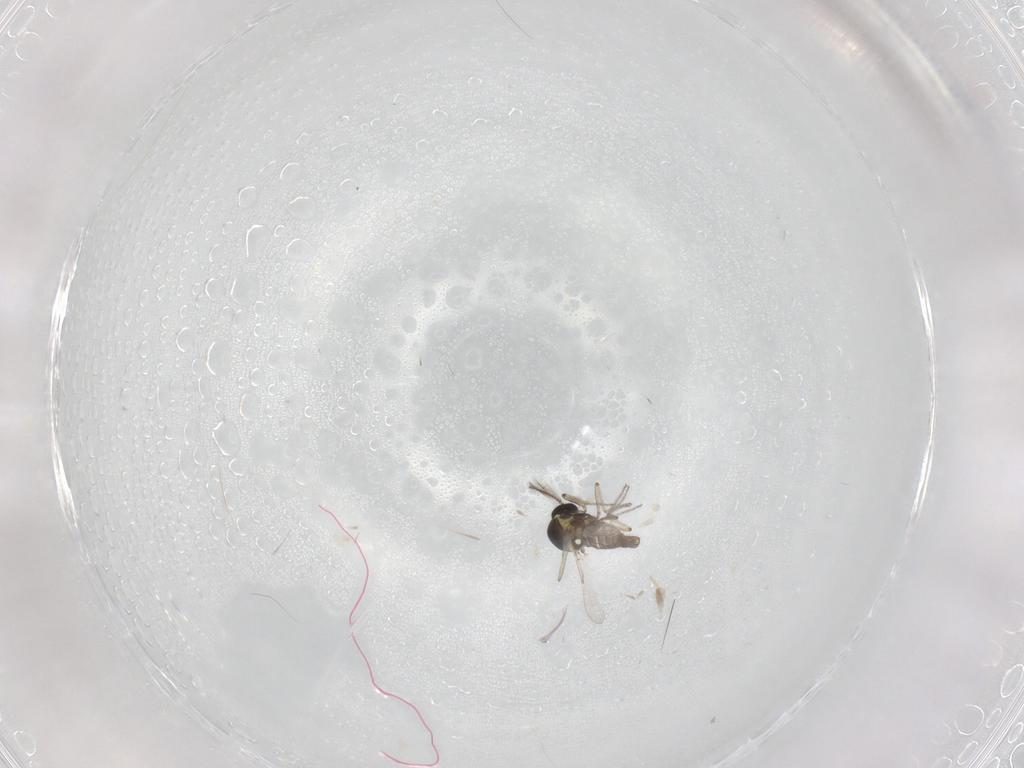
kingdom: Animalia
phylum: Arthropoda
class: Insecta
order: Diptera
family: Ceratopogonidae
